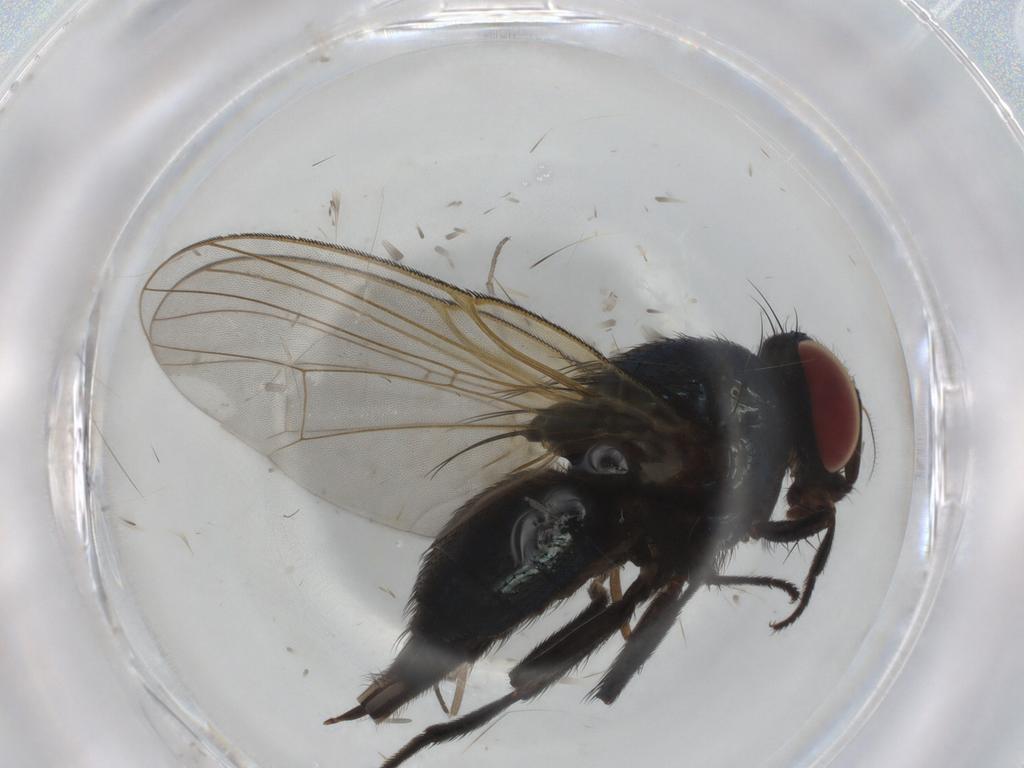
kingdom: Animalia
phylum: Arthropoda
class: Insecta
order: Diptera
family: Lonchaeidae
